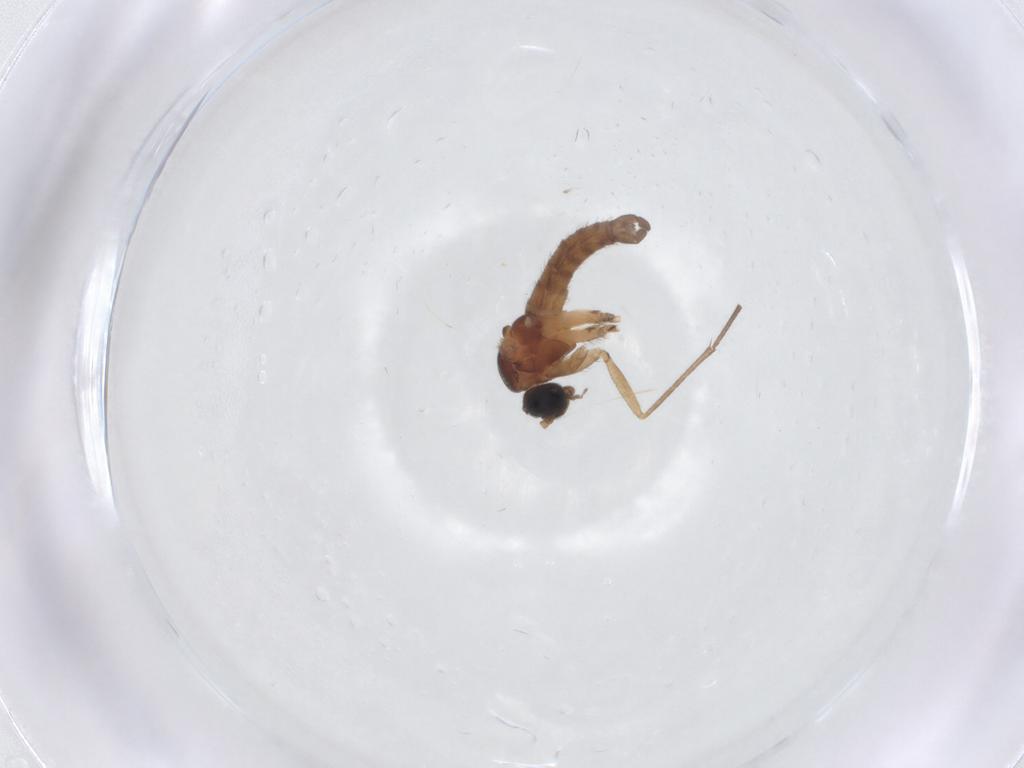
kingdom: Animalia
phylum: Arthropoda
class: Insecta
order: Diptera
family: Sciaridae
